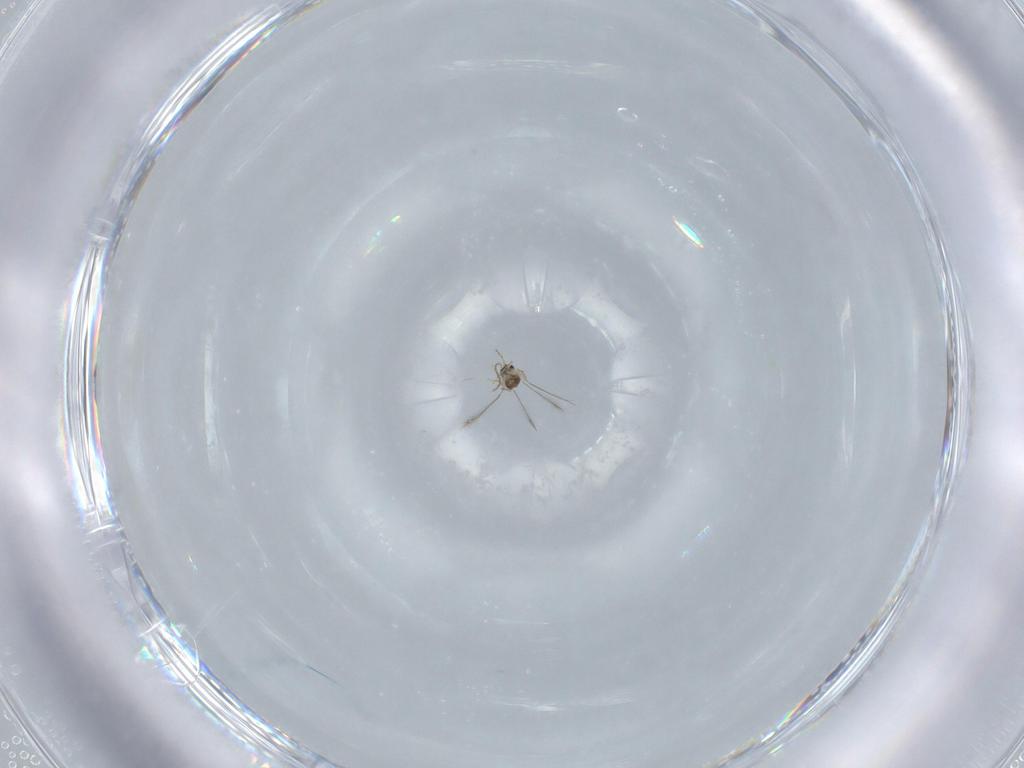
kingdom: Animalia
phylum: Arthropoda
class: Insecta
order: Hymenoptera
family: Mymaridae
